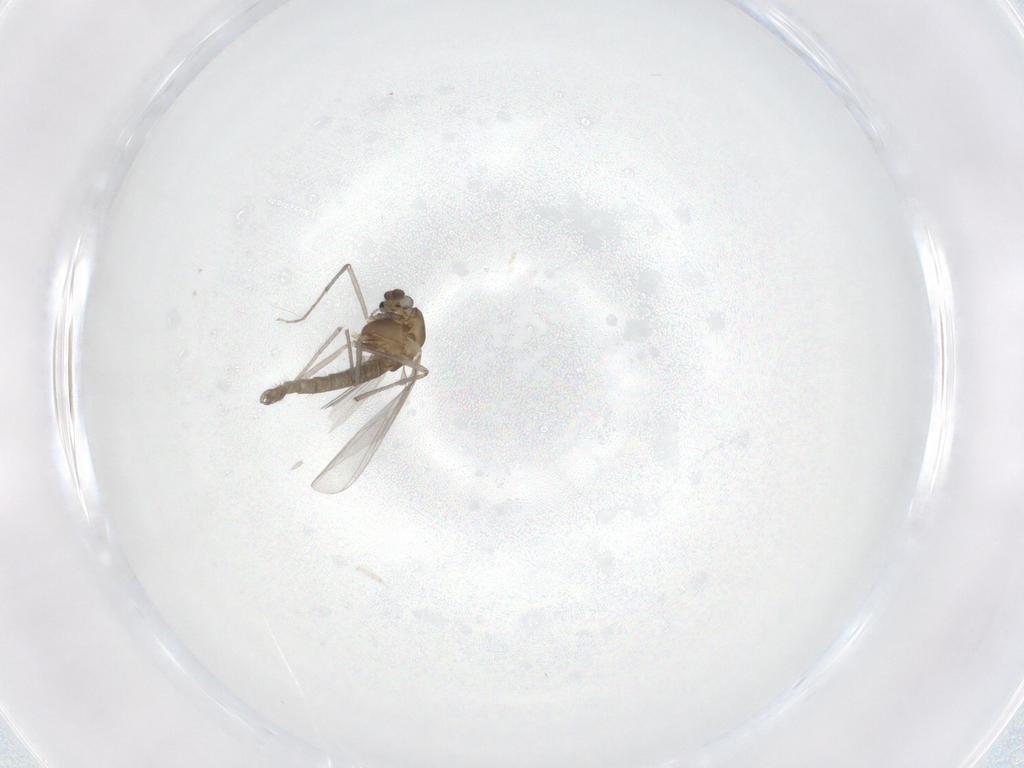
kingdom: Animalia
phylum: Arthropoda
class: Insecta
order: Diptera
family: Chironomidae
